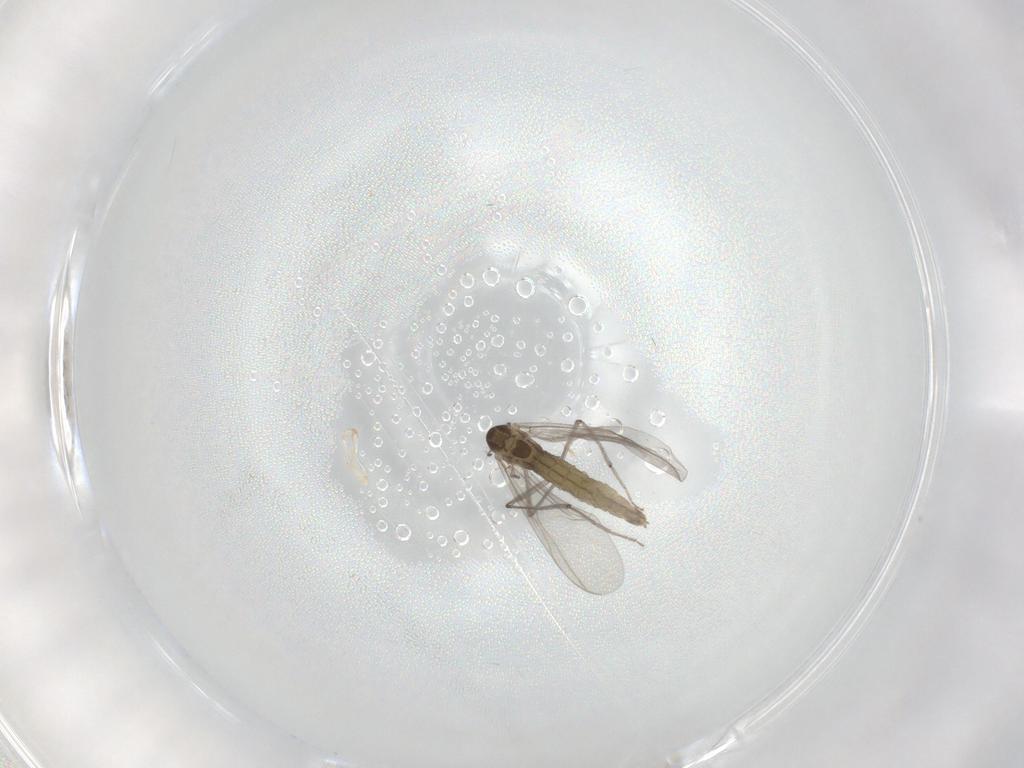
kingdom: Animalia
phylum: Arthropoda
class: Insecta
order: Diptera
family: Chironomidae
